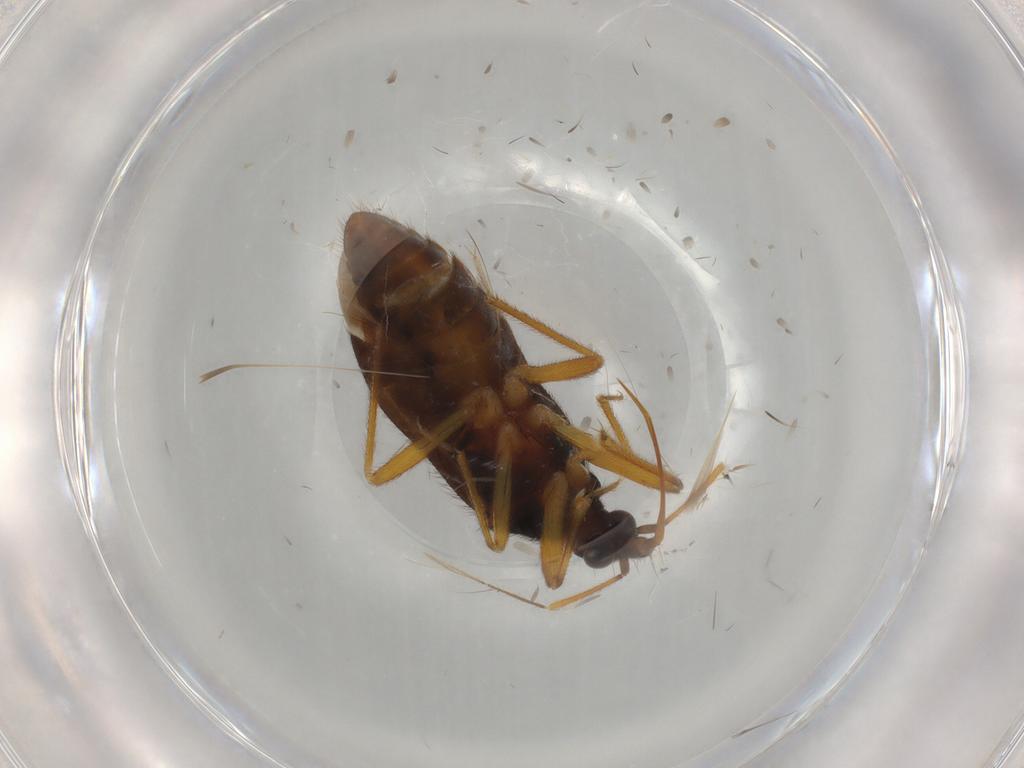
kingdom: Animalia
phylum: Arthropoda
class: Insecta
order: Hemiptera
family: Anthocoridae
